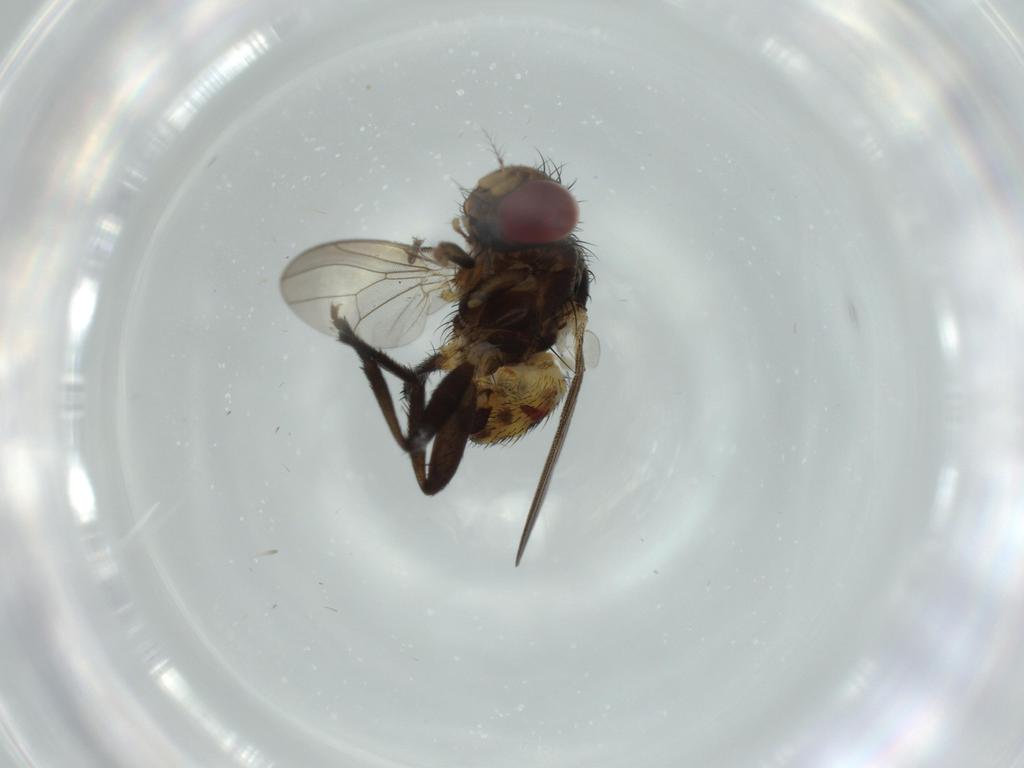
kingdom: Animalia
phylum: Arthropoda
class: Insecta
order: Diptera
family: Anthomyiidae
